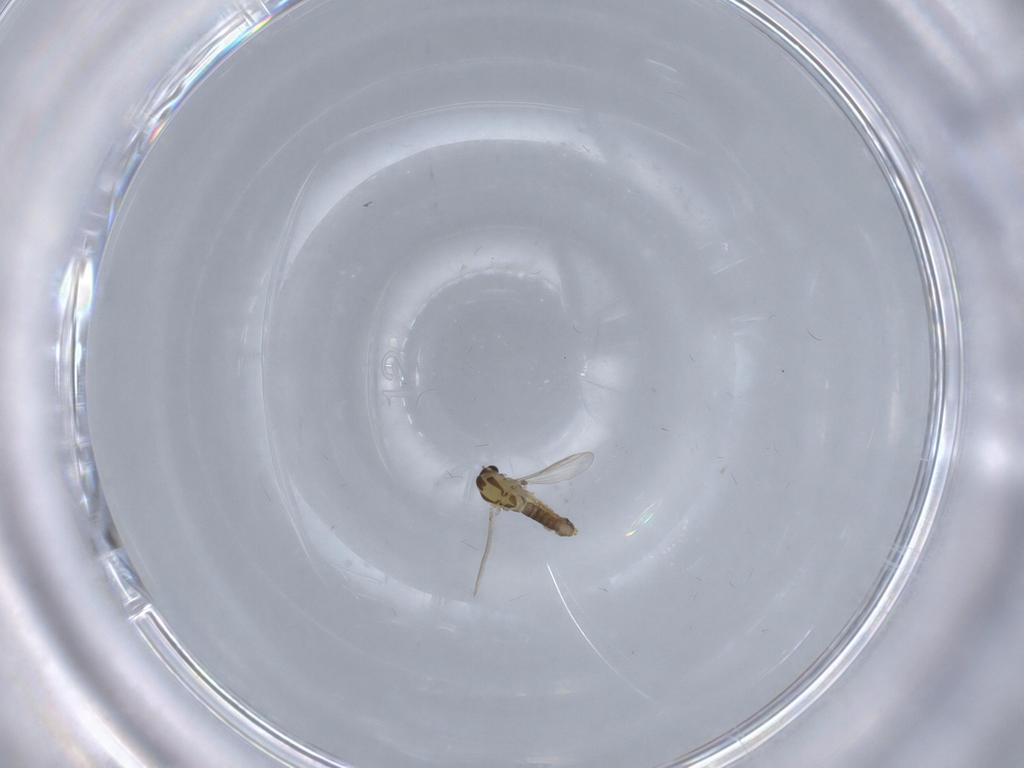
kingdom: Animalia
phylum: Arthropoda
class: Insecta
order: Diptera
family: Chironomidae
